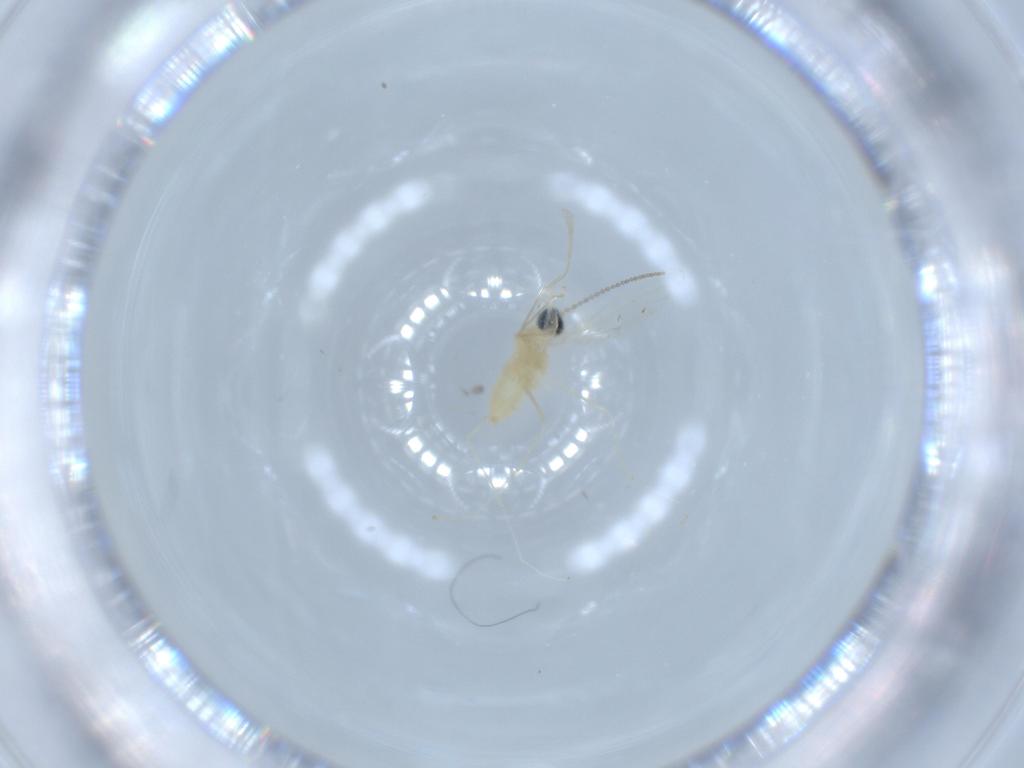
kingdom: Animalia
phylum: Arthropoda
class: Insecta
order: Diptera
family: Cecidomyiidae
